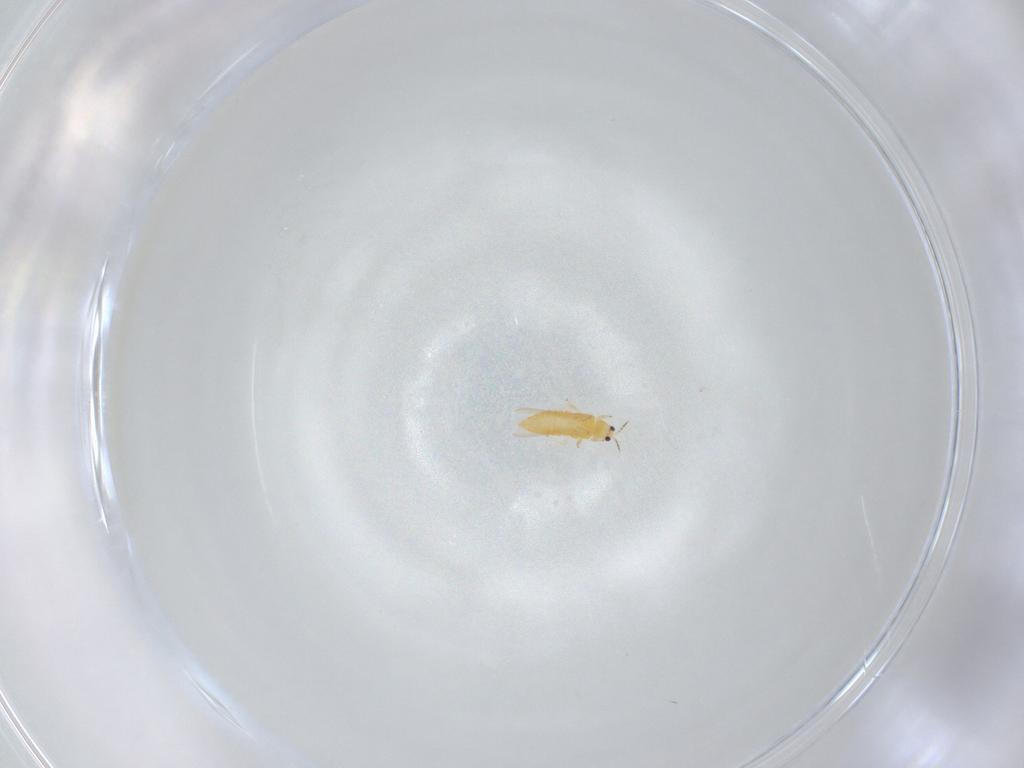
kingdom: Animalia
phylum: Arthropoda
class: Insecta
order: Thysanoptera
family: Thripidae
